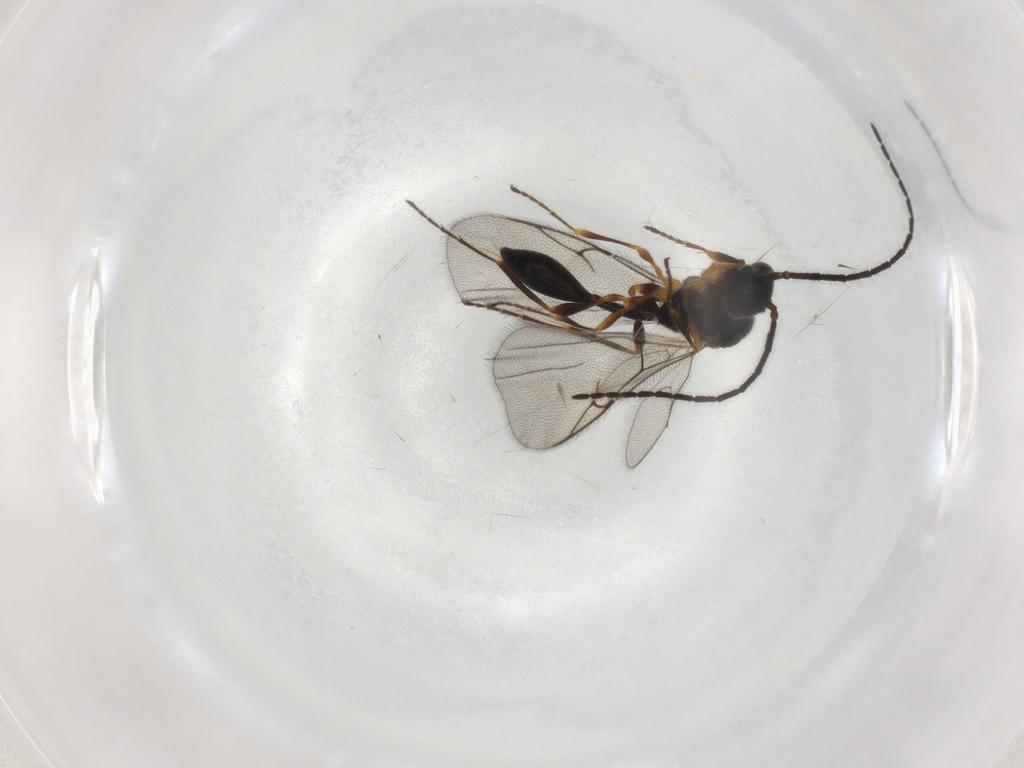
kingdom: Animalia
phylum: Arthropoda
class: Insecta
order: Hymenoptera
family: Diapriidae
